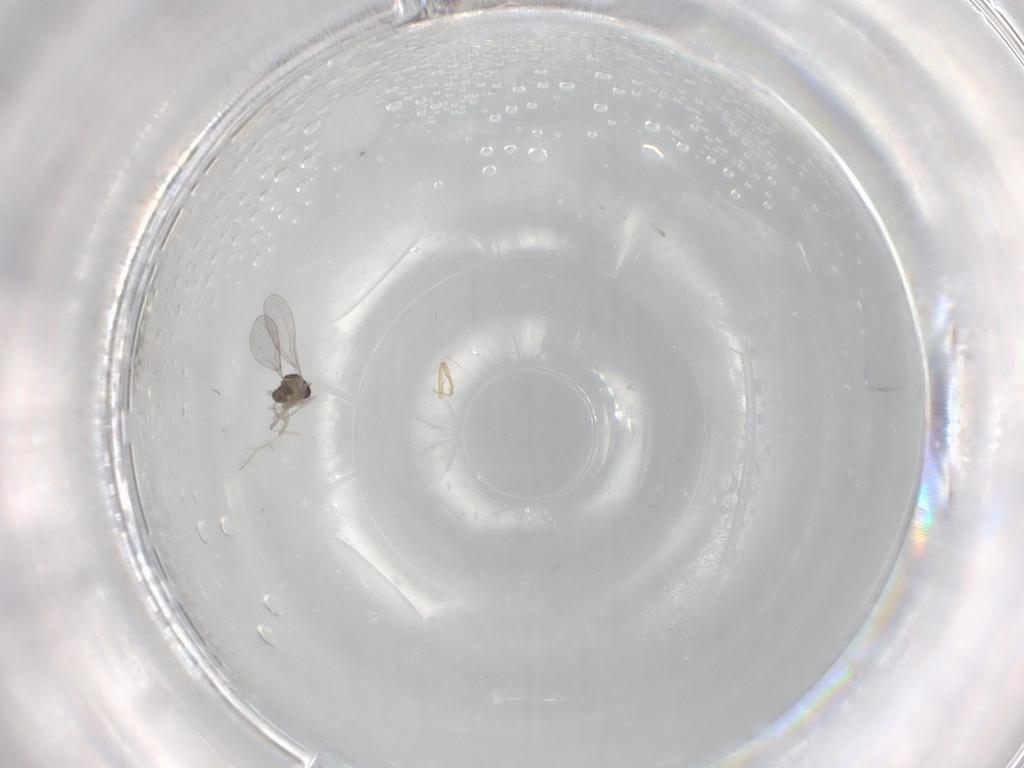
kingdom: Animalia
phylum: Arthropoda
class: Insecta
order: Diptera
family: Cecidomyiidae
